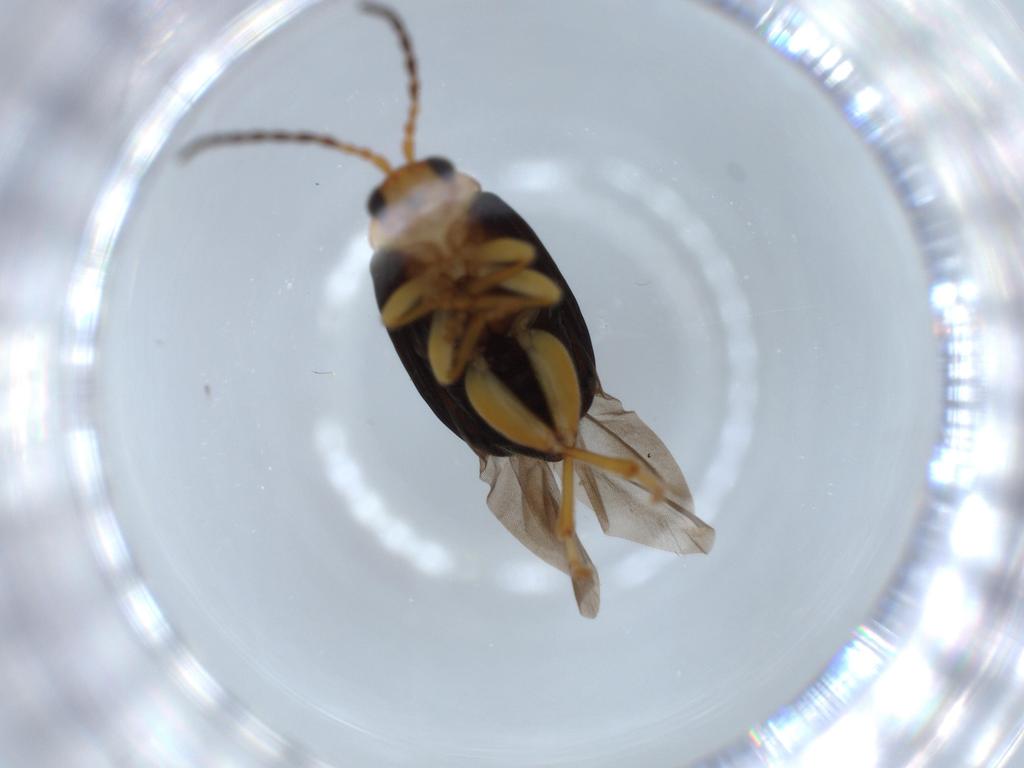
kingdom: Animalia
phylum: Arthropoda
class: Insecta
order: Coleoptera
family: Chrysomelidae
